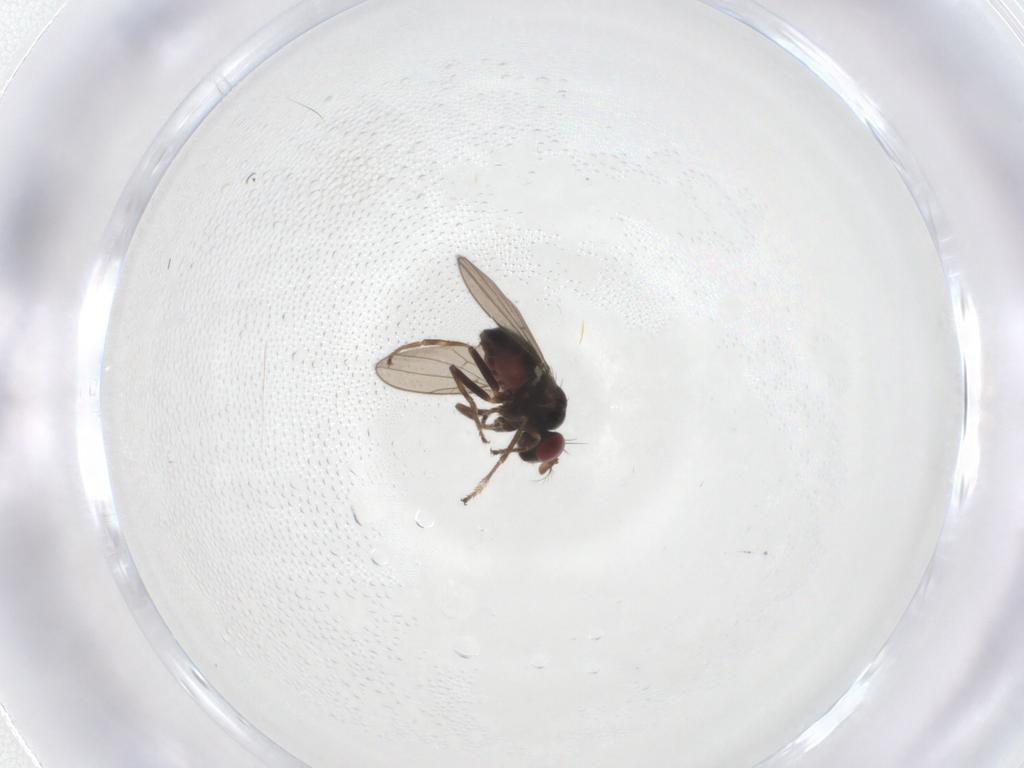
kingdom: Animalia
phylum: Arthropoda
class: Insecta
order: Diptera
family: Ephydridae
